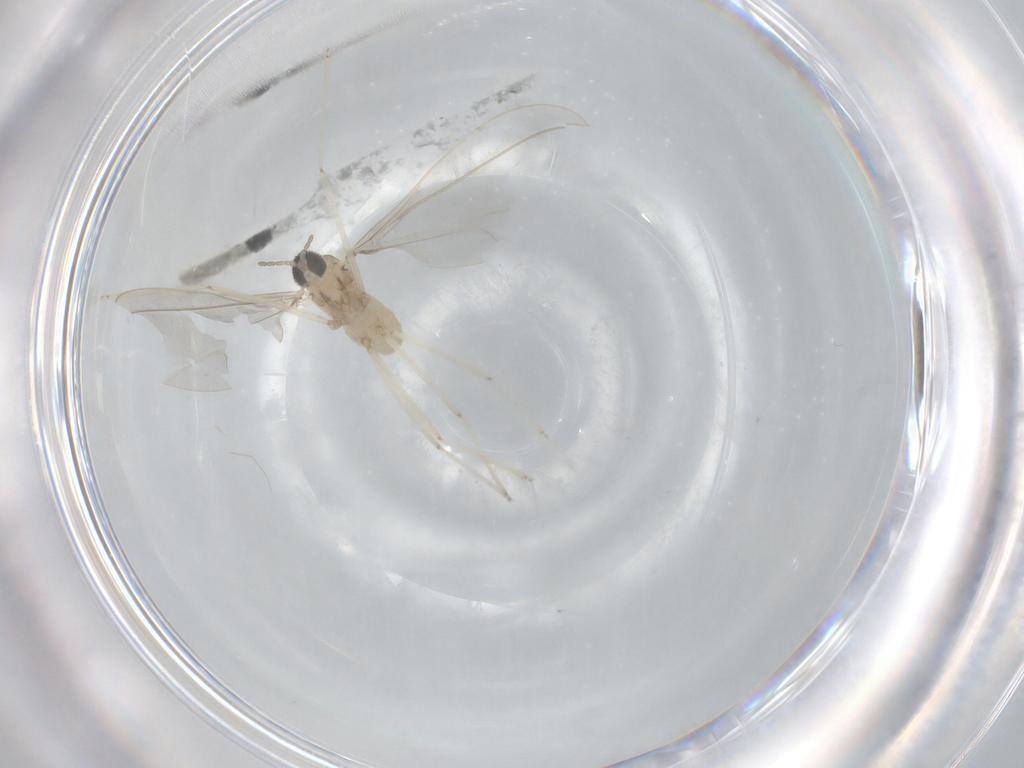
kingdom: Animalia
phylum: Arthropoda
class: Insecta
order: Diptera
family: Cecidomyiidae
